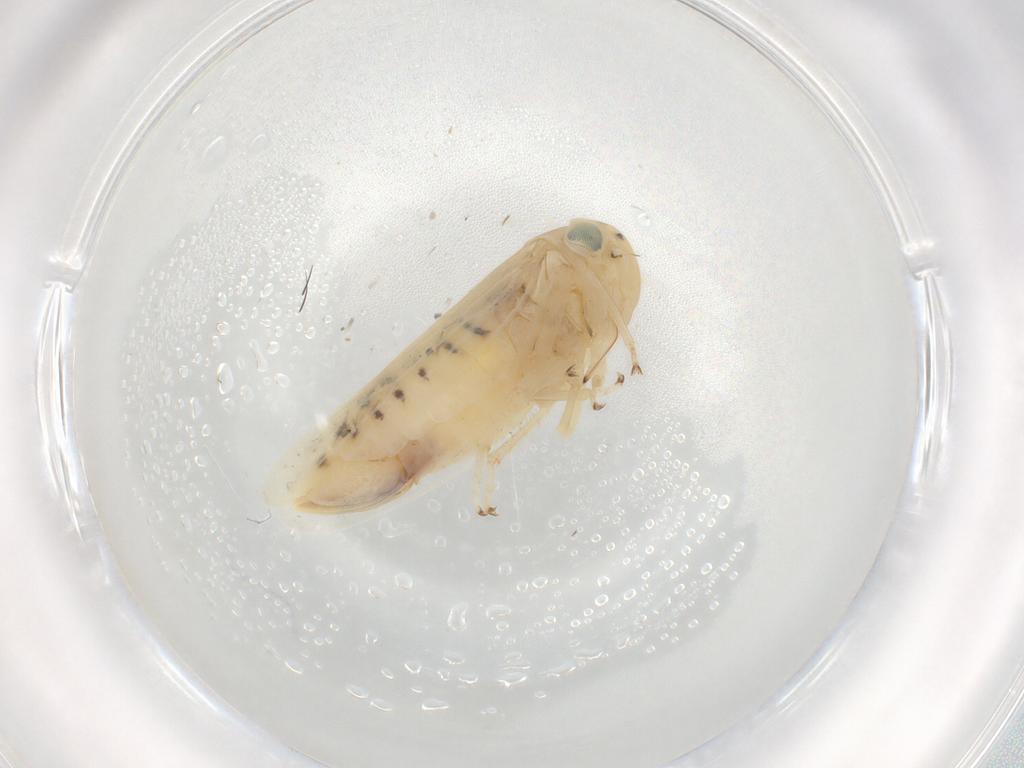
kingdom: Animalia
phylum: Arthropoda
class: Insecta
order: Hemiptera
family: Cicadellidae
